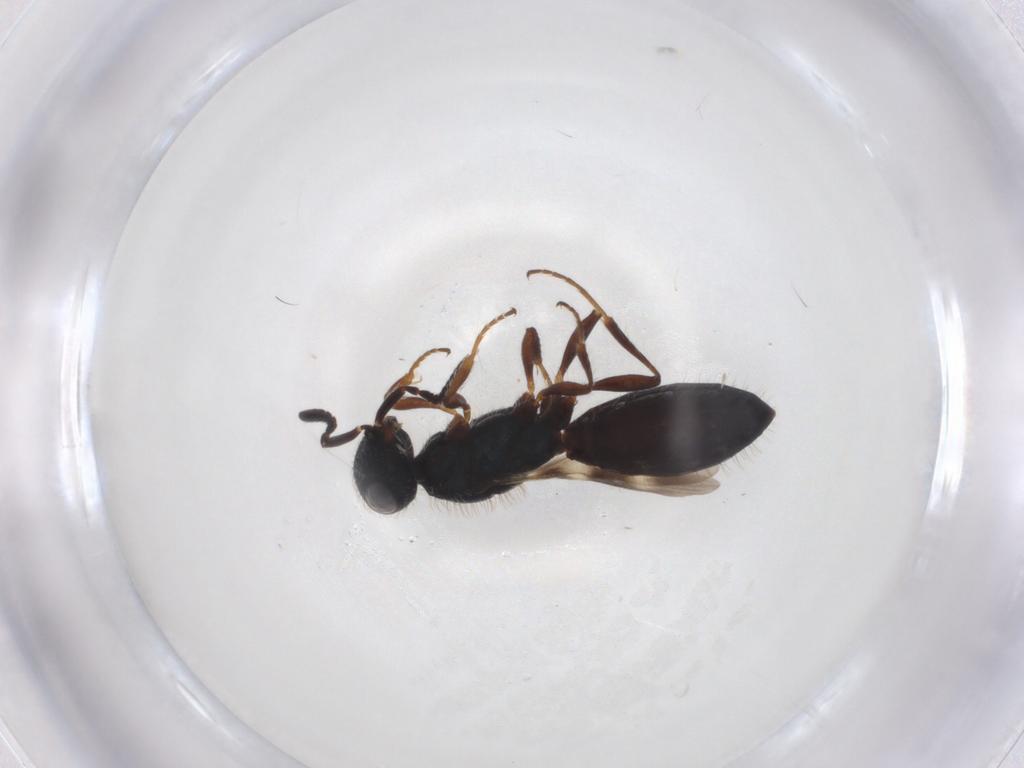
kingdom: Animalia
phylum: Arthropoda
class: Insecta
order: Hymenoptera
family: Scelionidae
